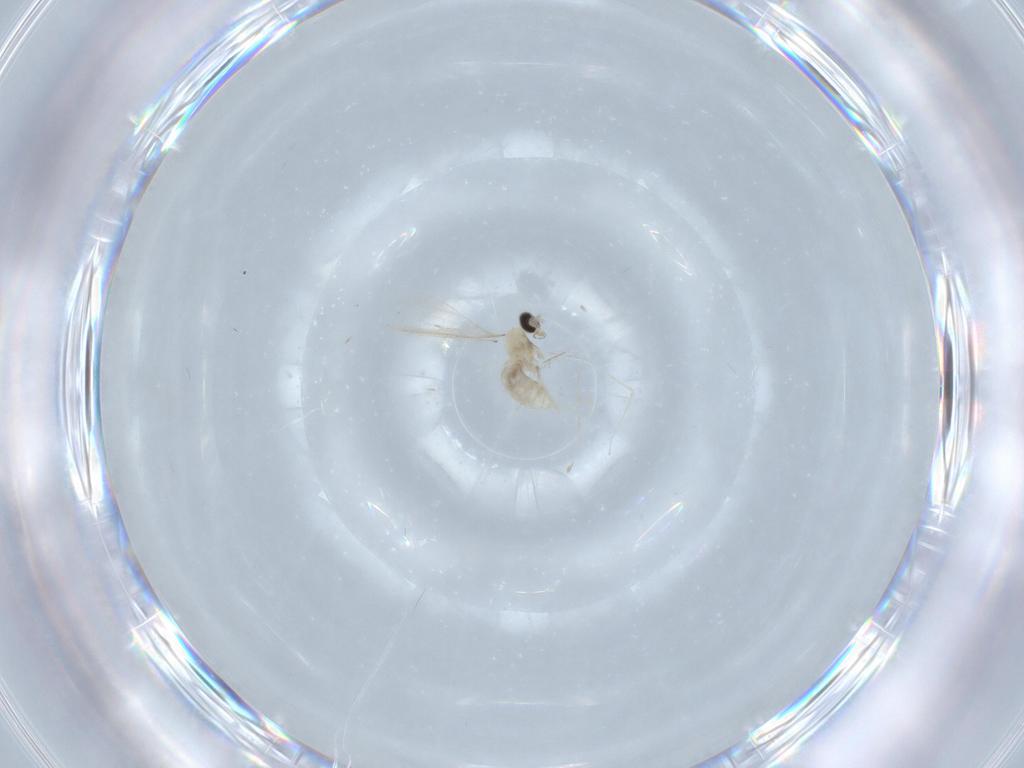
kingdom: Animalia
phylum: Arthropoda
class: Insecta
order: Diptera
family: Cecidomyiidae
